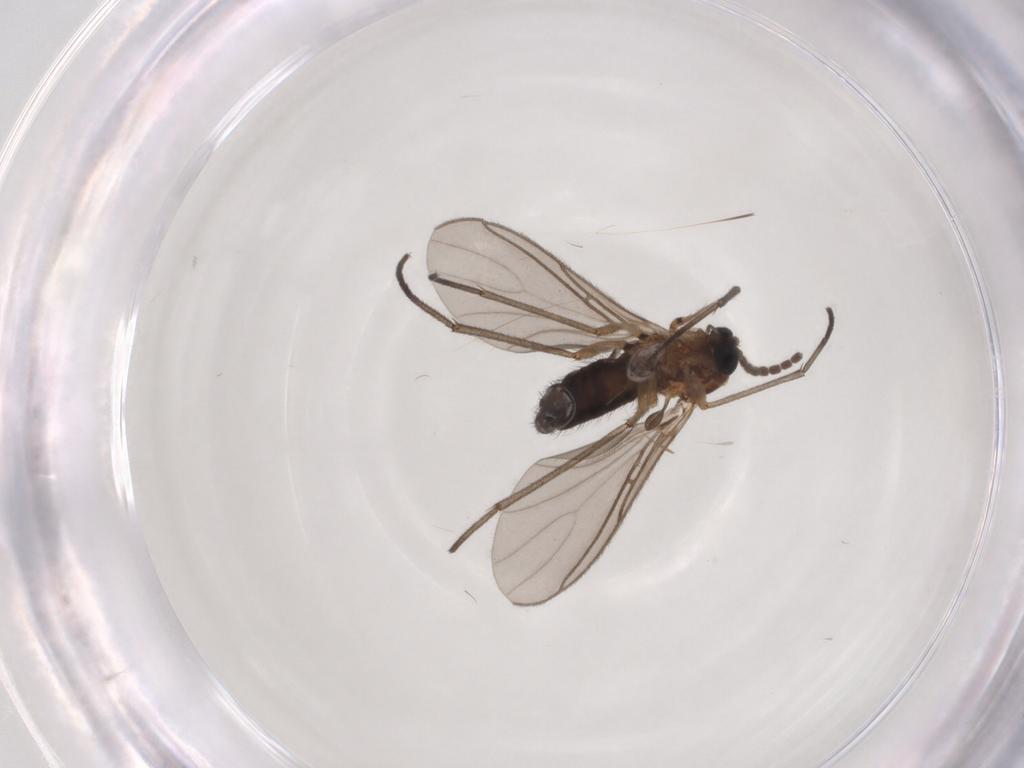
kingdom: Animalia
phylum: Arthropoda
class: Insecta
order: Diptera
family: Sciaridae
